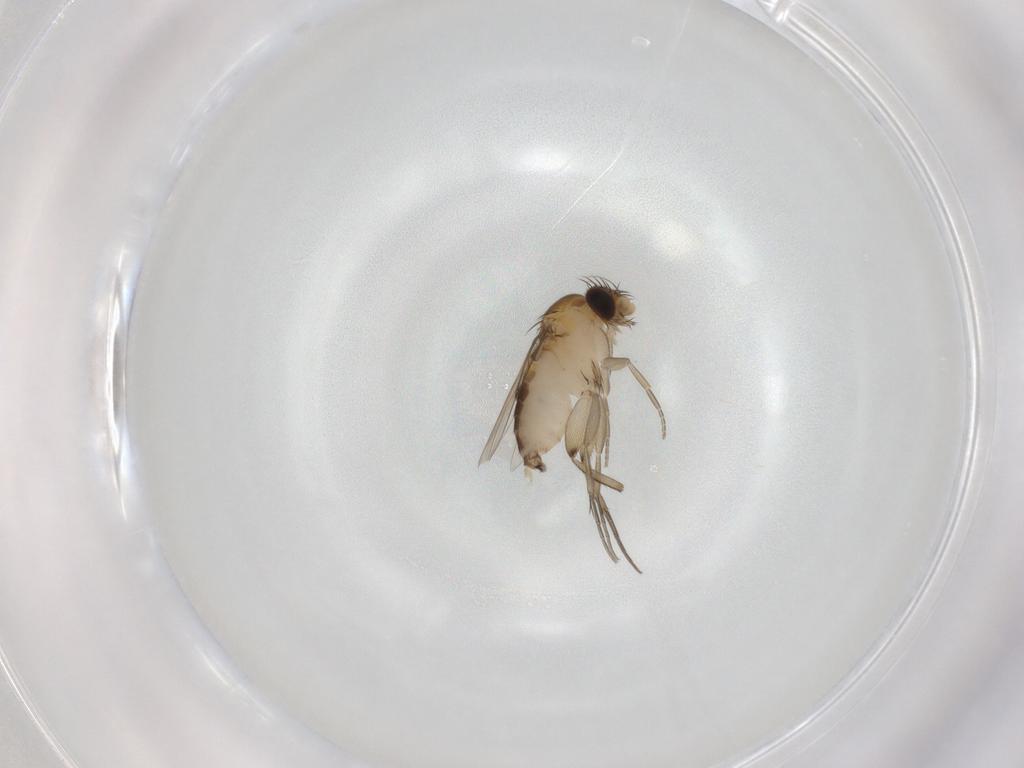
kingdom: Animalia
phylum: Arthropoda
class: Insecta
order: Diptera
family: Phoridae
